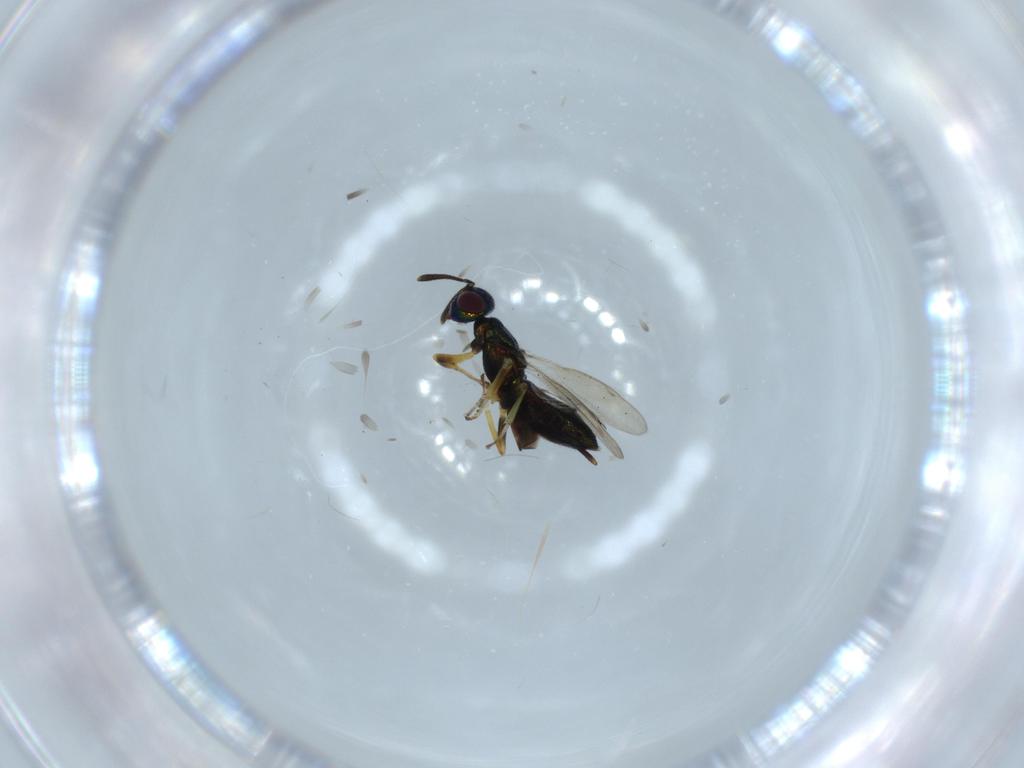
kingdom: Animalia
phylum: Arthropoda
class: Insecta
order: Hymenoptera
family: Eupelmidae
